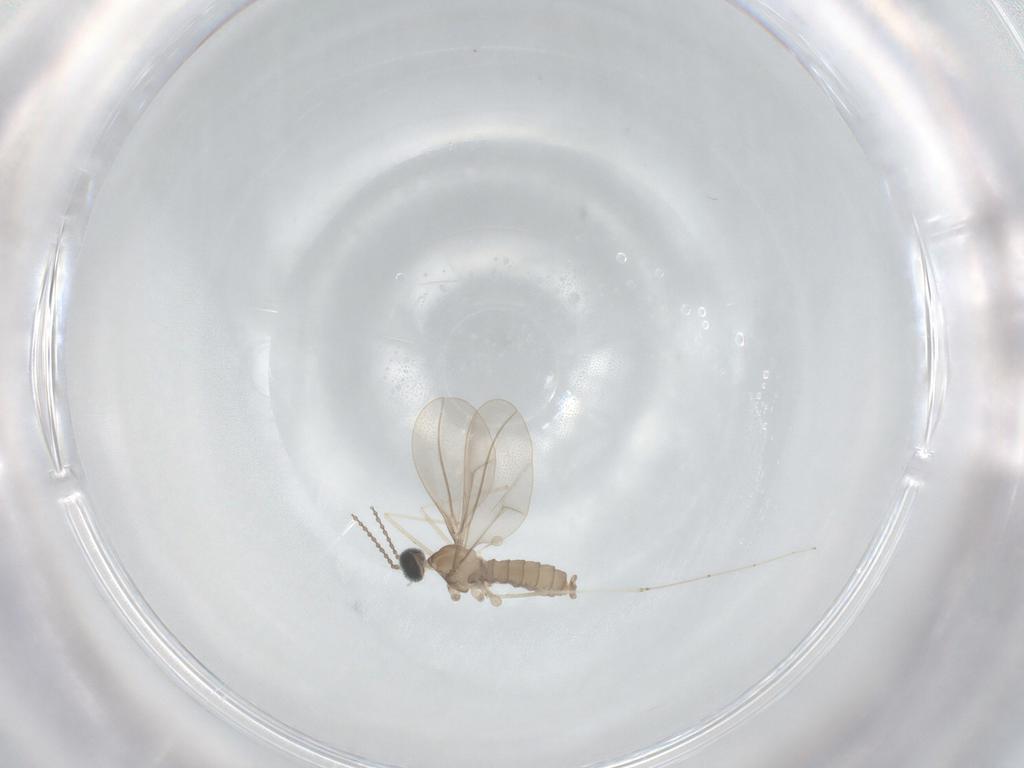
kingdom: Animalia
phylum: Arthropoda
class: Insecta
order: Diptera
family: Cecidomyiidae
